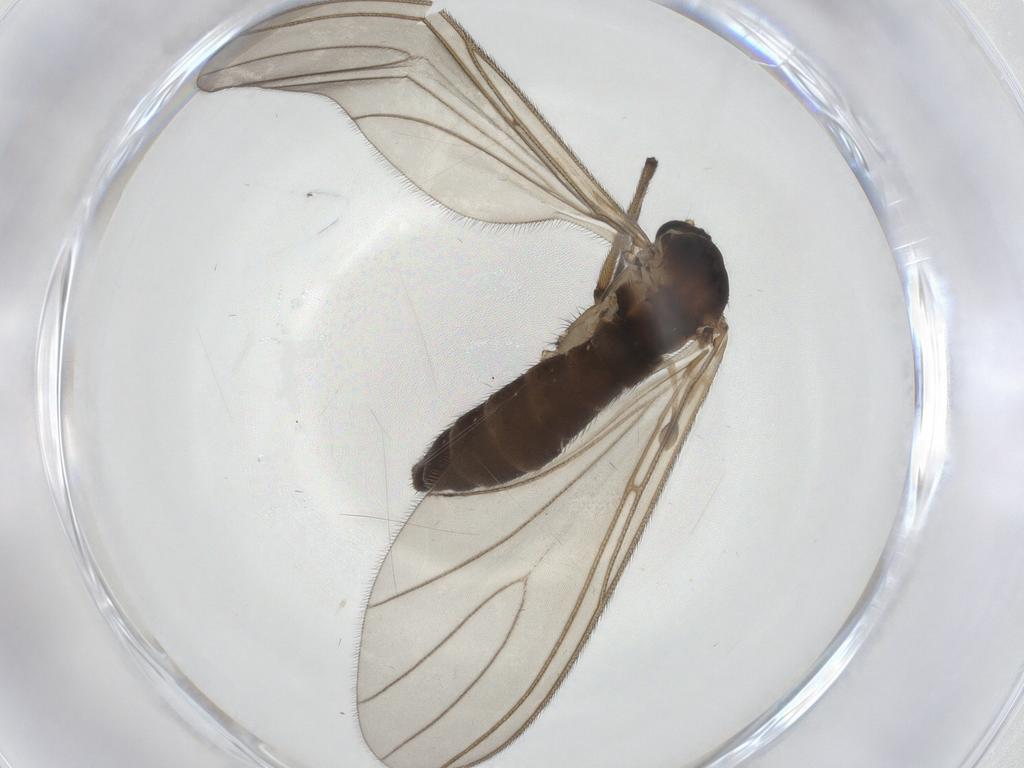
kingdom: Animalia
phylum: Arthropoda
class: Insecta
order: Diptera
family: Sciaridae
